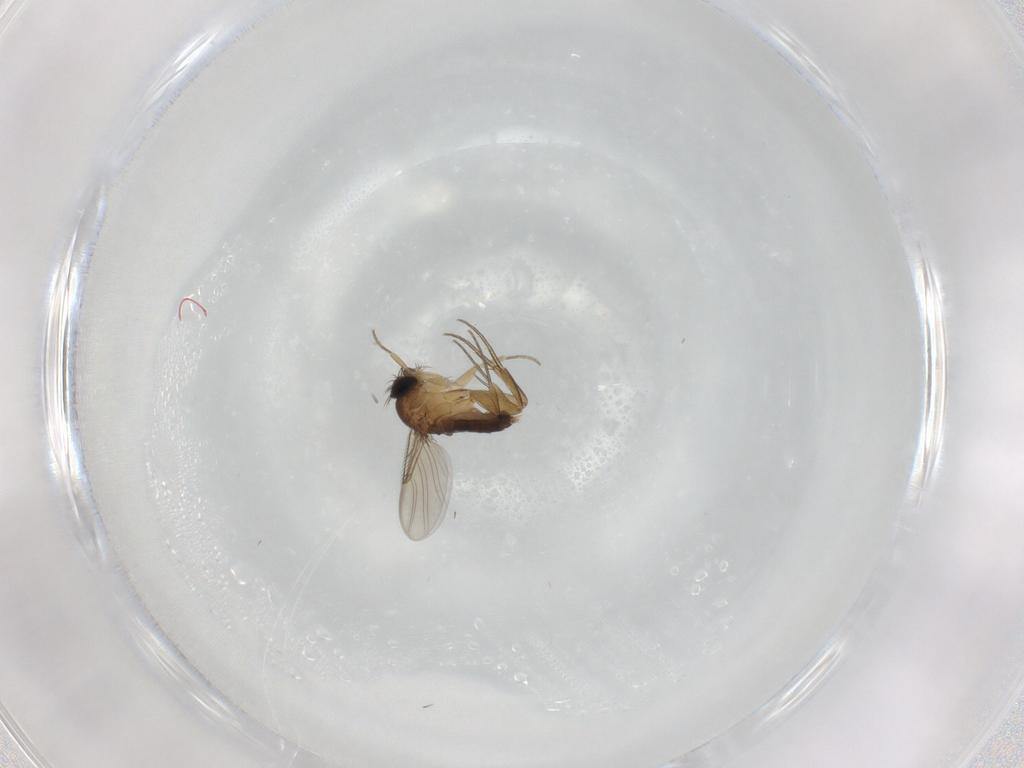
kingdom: Animalia
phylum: Arthropoda
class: Insecta
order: Diptera
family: Phoridae
